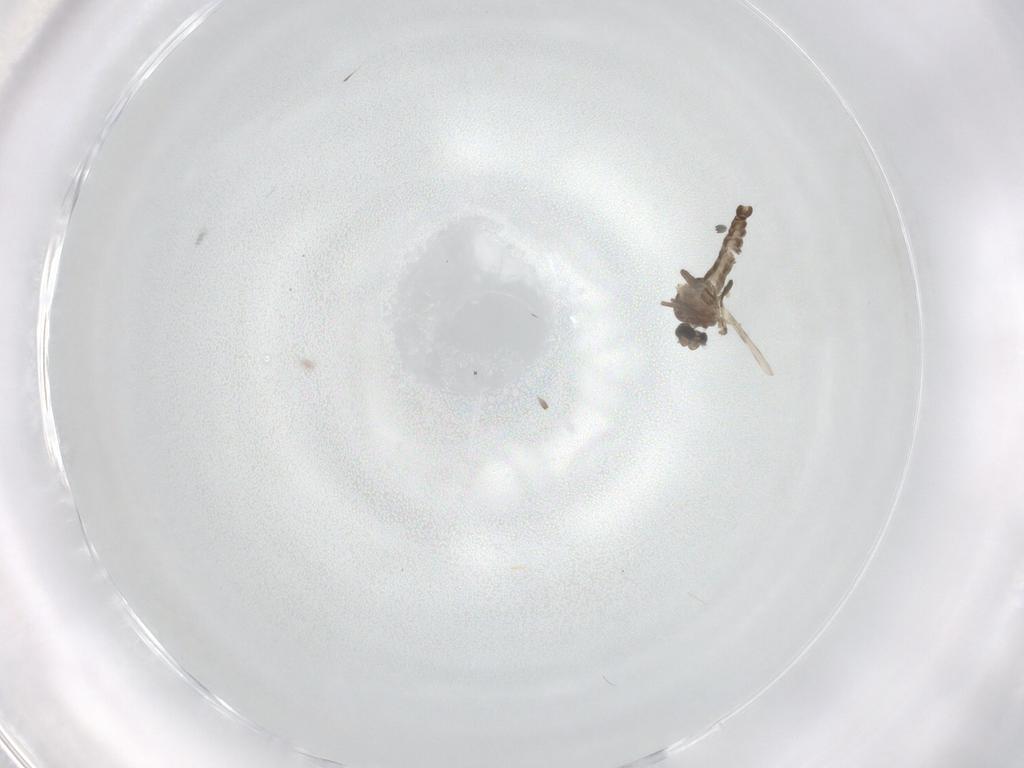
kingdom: Animalia
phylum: Arthropoda
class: Insecta
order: Diptera
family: Ceratopogonidae
